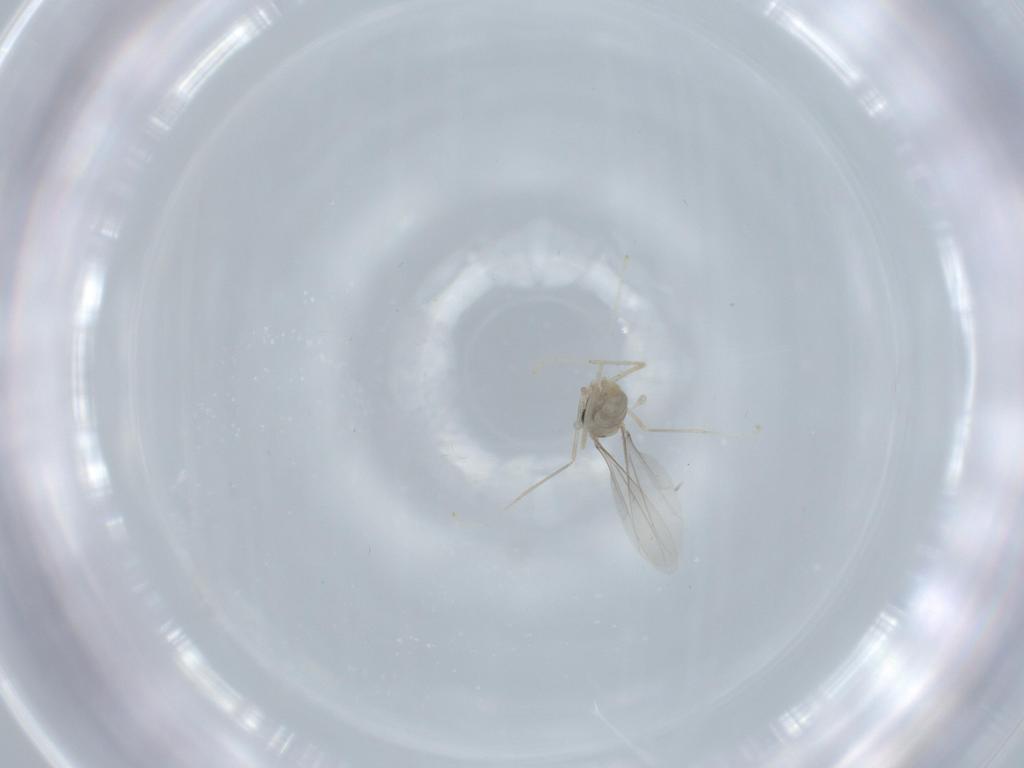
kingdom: Animalia
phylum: Arthropoda
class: Insecta
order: Diptera
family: Cecidomyiidae
